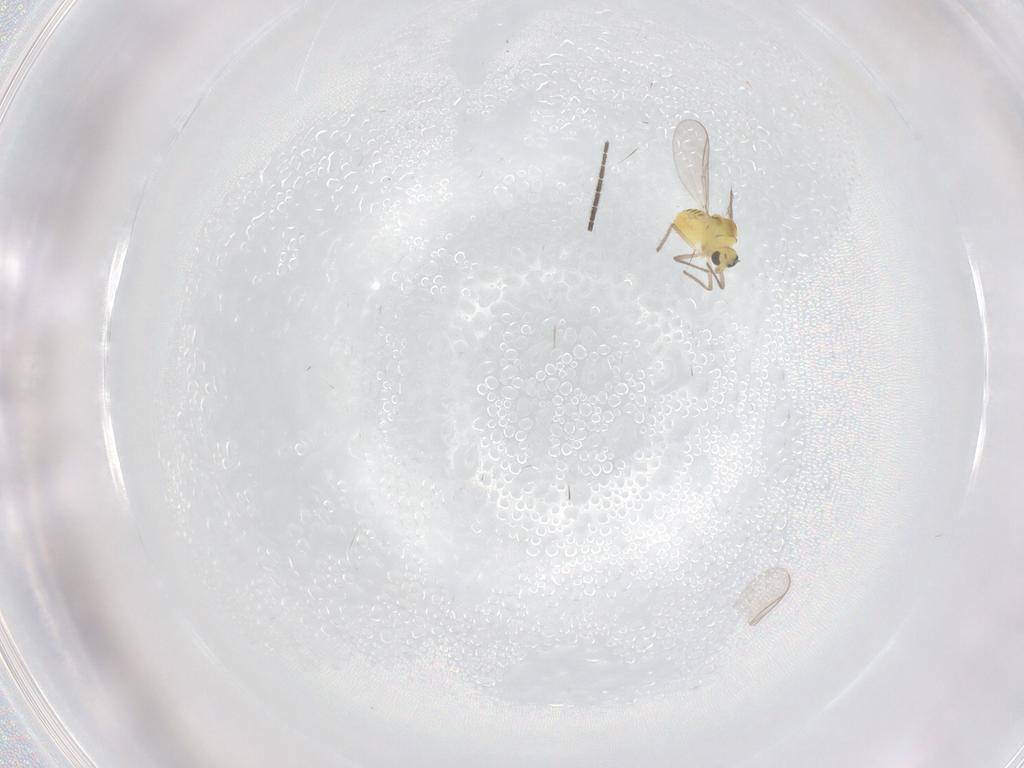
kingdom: Animalia
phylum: Arthropoda
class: Insecta
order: Diptera
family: Chironomidae
